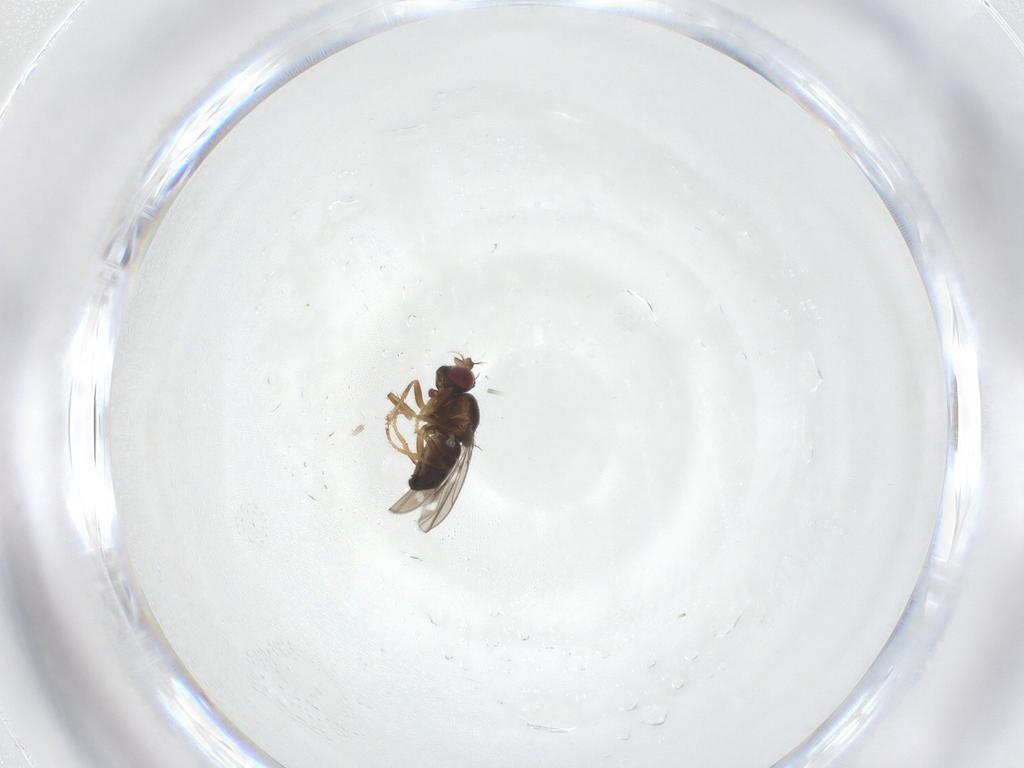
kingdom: Animalia
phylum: Arthropoda
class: Insecta
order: Diptera
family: Ephydridae
